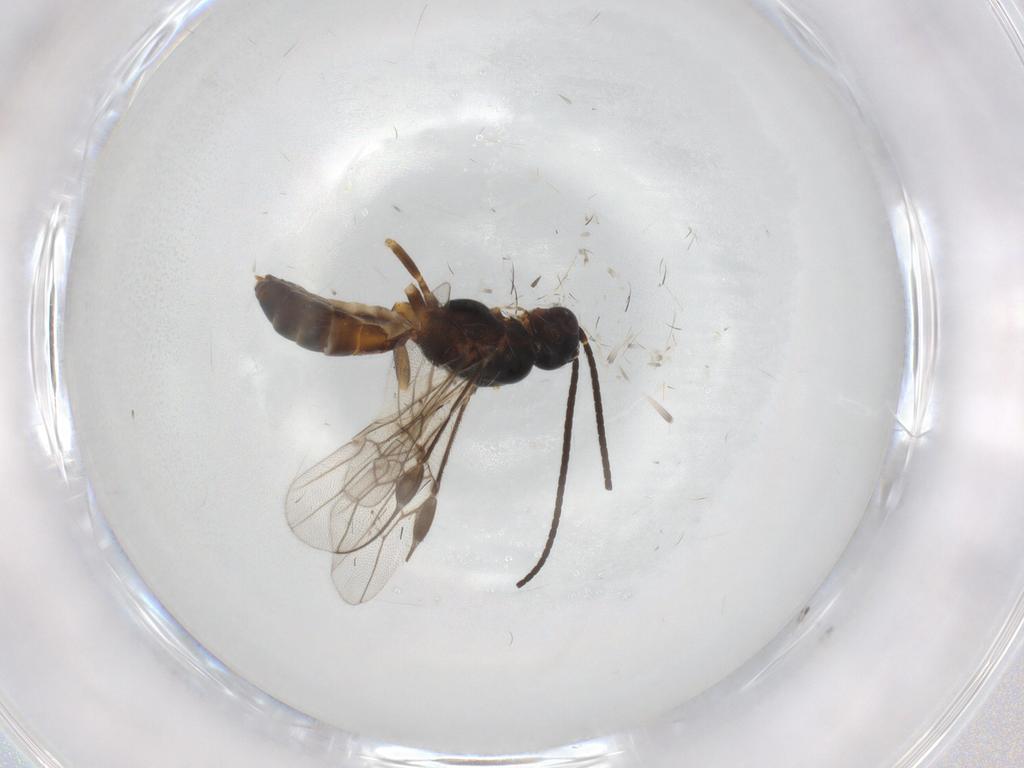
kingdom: Animalia
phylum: Arthropoda
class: Insecta
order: Hymenoptera
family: Braconidae
